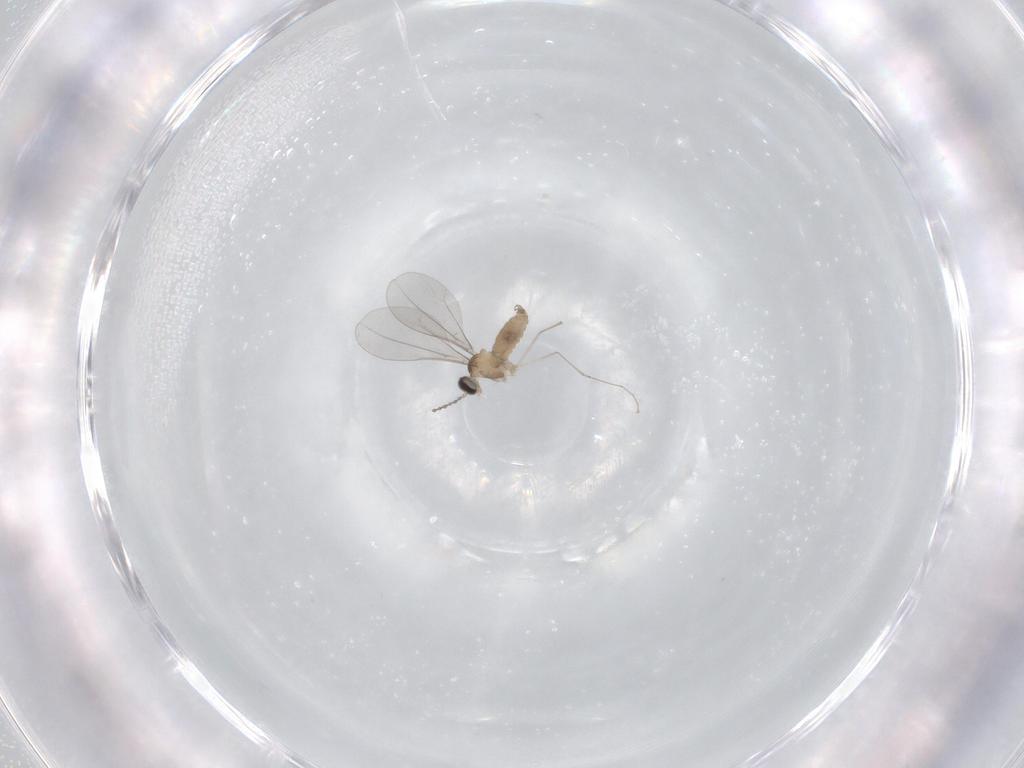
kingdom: Animalia
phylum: Arthropoda
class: Insecta
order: Diptera
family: Cecidomyiidae
